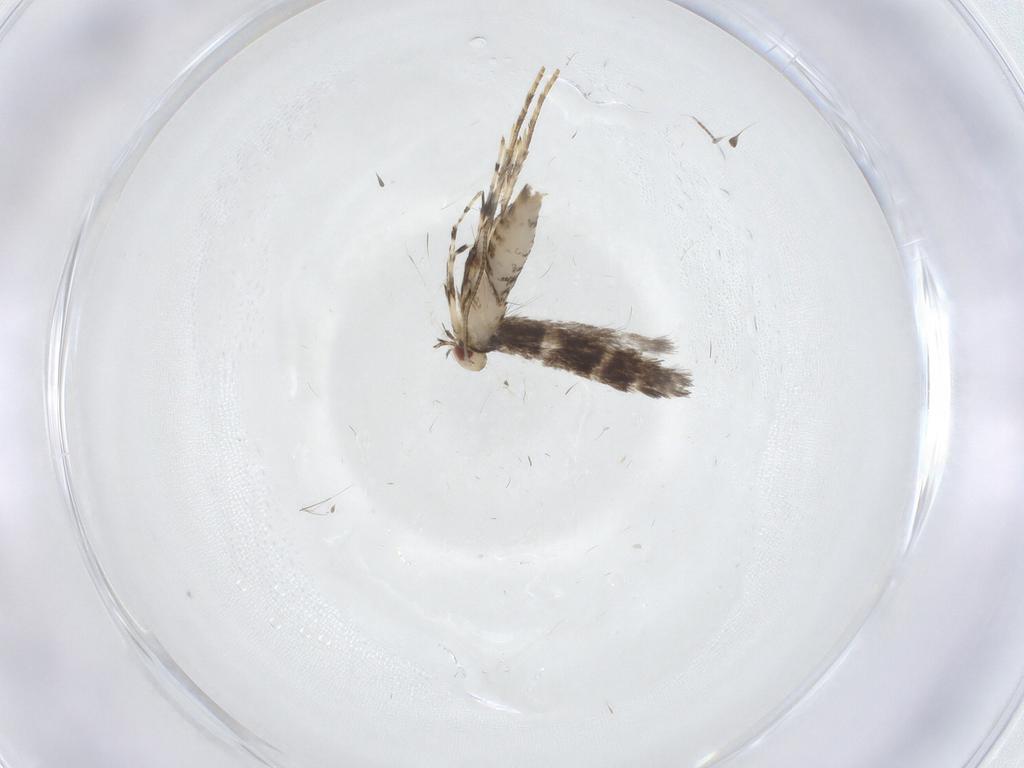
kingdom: Animalia
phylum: Arthropoda
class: Insecta
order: Lepidoptera
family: Gracillariidae
